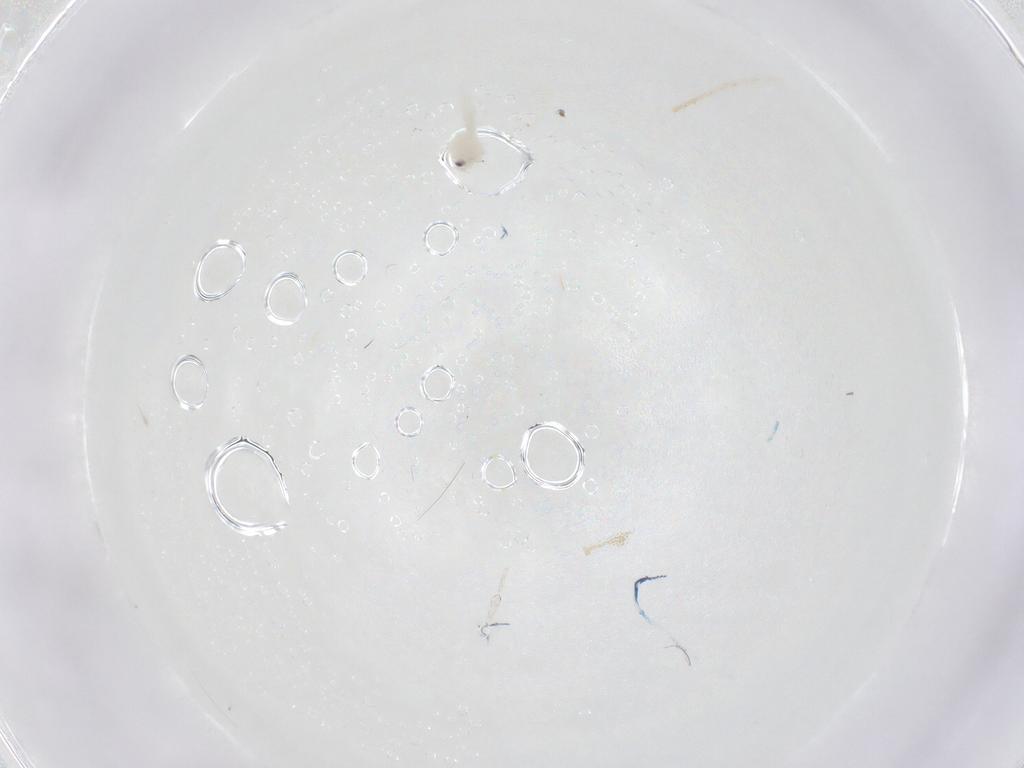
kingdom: Animalia
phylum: Arthropoda
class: Insecta
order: Hemiptera
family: Aleyrodidae
